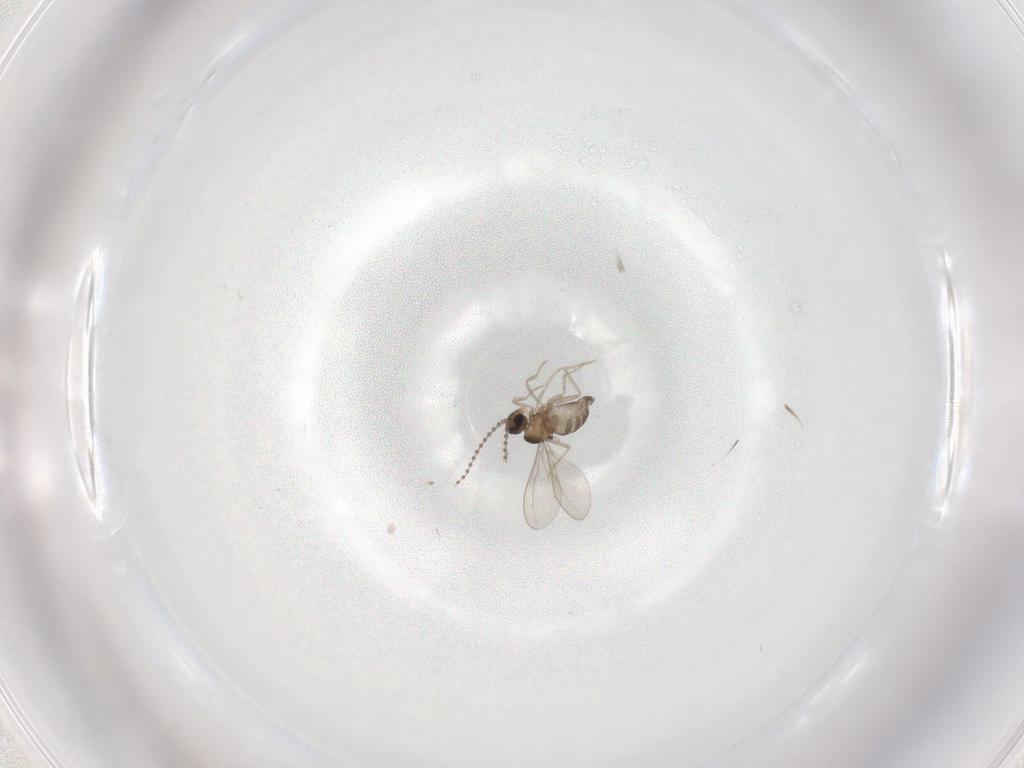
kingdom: Animalia
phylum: Arthropoda
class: Insecta
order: Diptera
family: Cecidomyiidae
